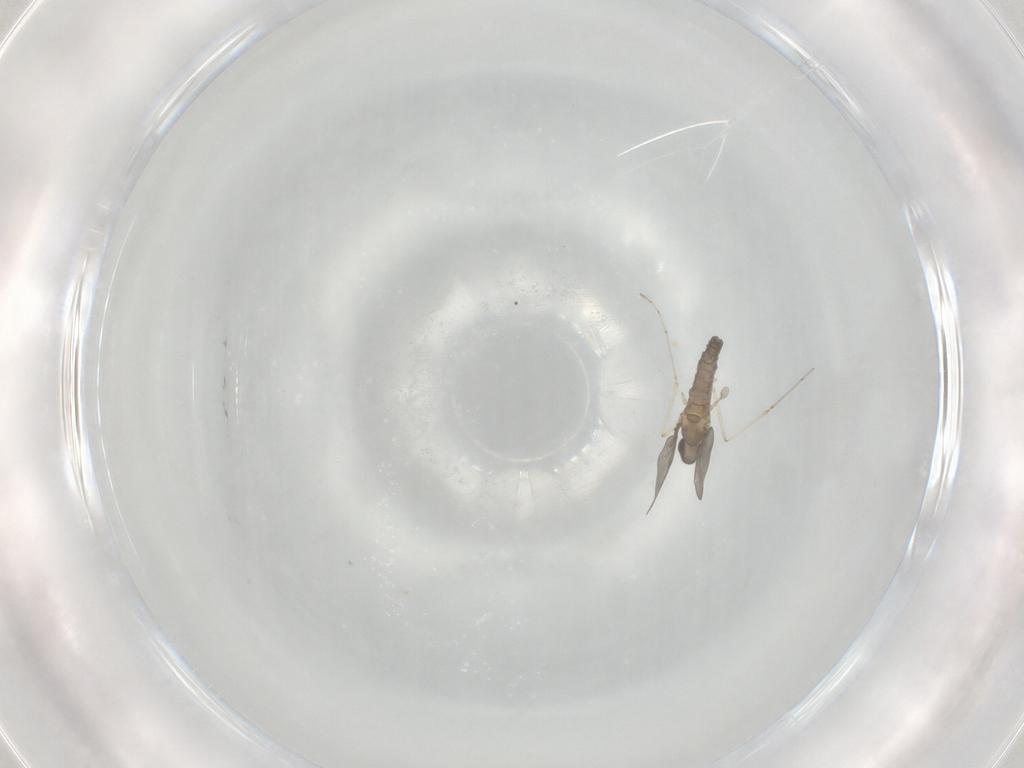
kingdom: Animalia
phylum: Arthropoda
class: Insecta
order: Diptera
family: Cecidomyiidae
